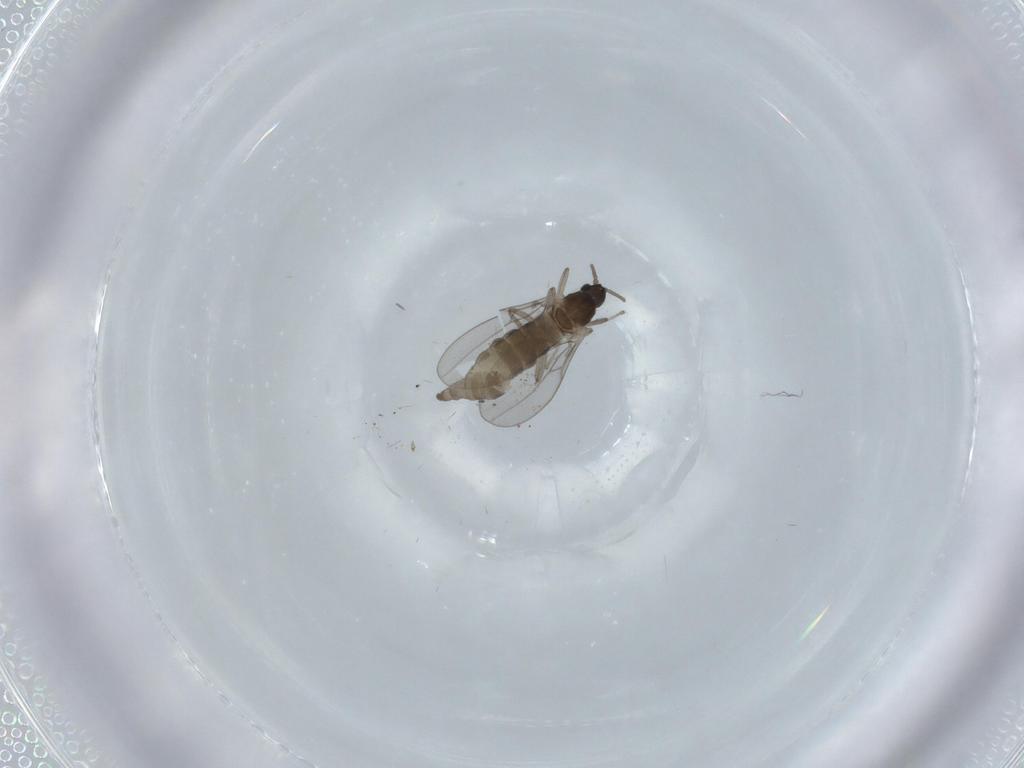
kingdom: Animalia
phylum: Arthropoda
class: Insecta
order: Diptera
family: Cecidomyiidae
